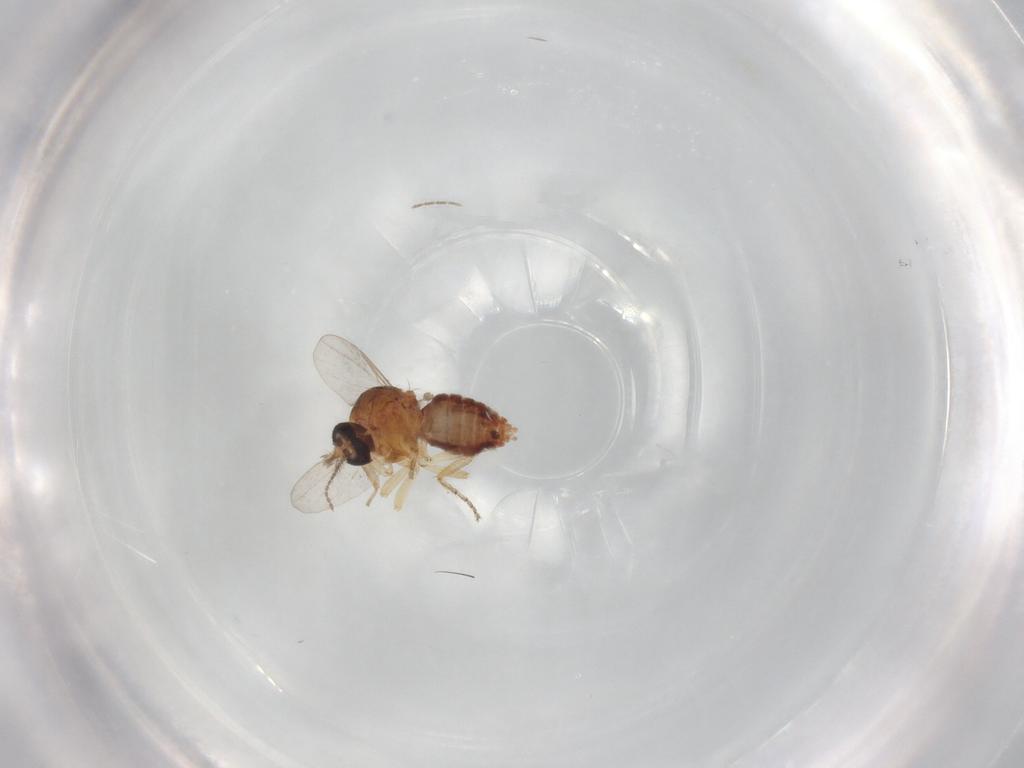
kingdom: Animalia
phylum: Arthropoda
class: Insecta
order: Diptera
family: Ceratopogonidae
